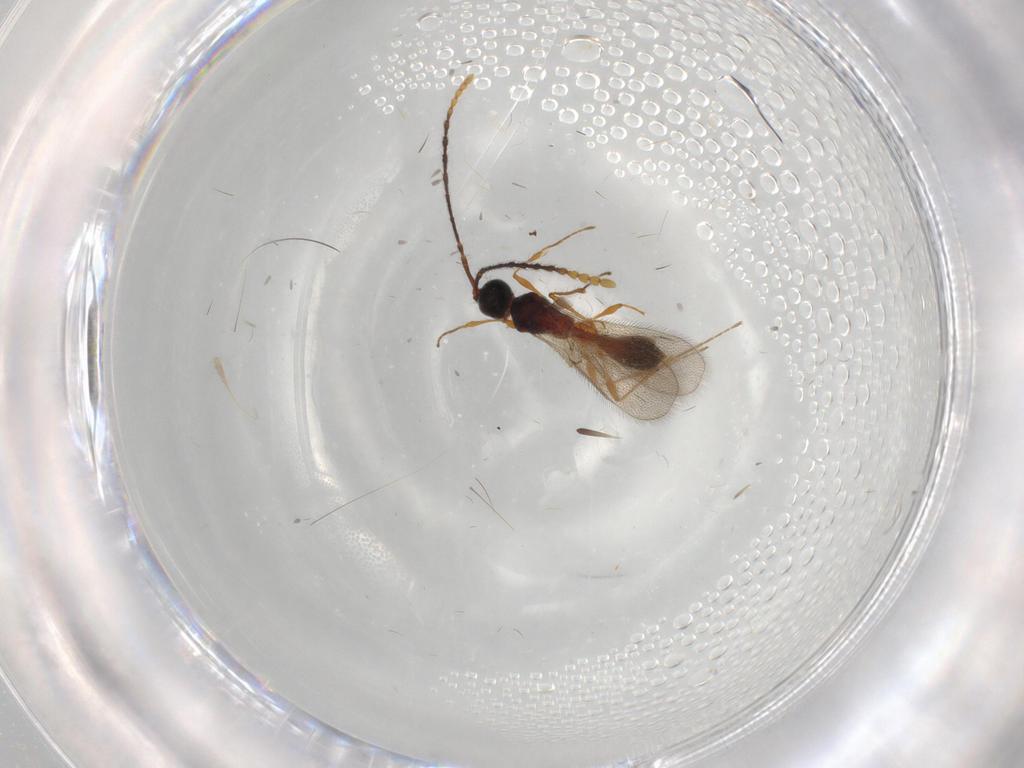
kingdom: Animalia
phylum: Arthropoda
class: Insecta
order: Hymenoptera
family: Diapriidae
